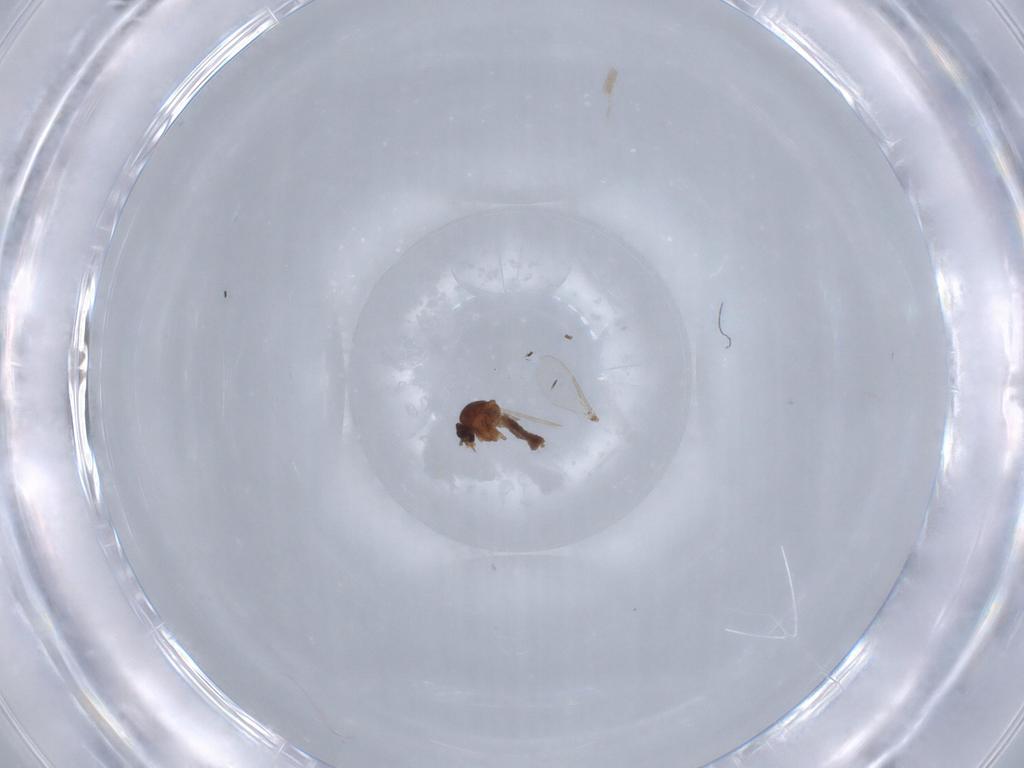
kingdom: Animalia
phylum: Arthropoda
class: Insecta
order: Diptera
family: Ceratopogonidae
